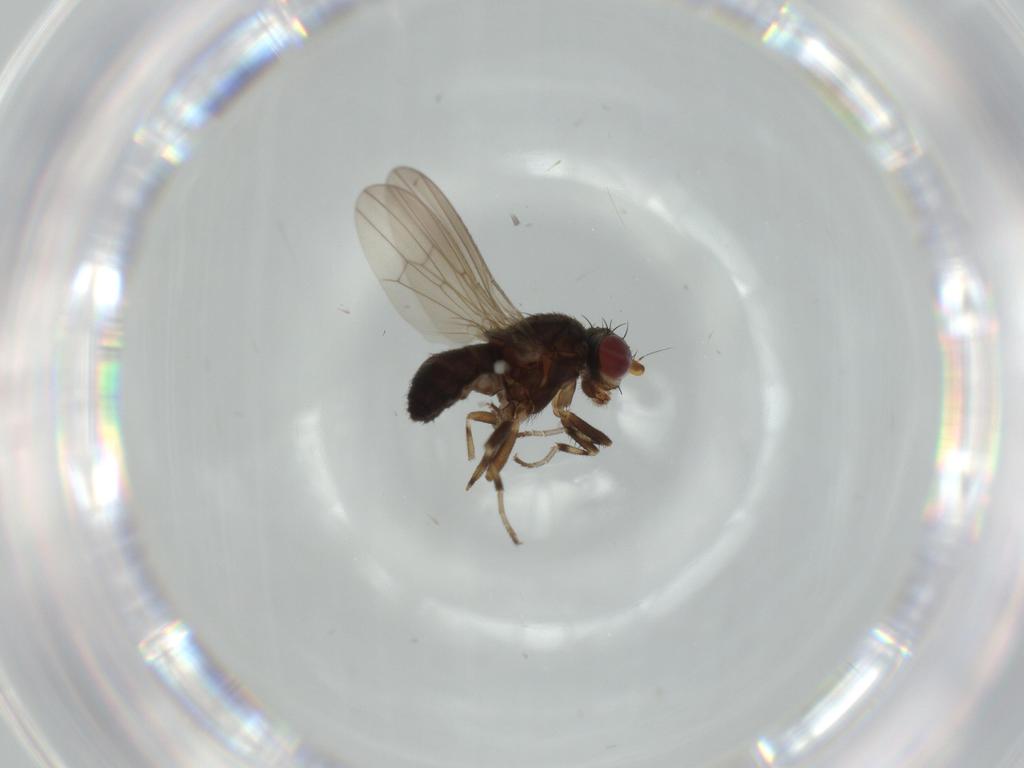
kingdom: Animalia
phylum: Arthropoda
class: Insecta
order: Diptera
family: Heleomyzidae
